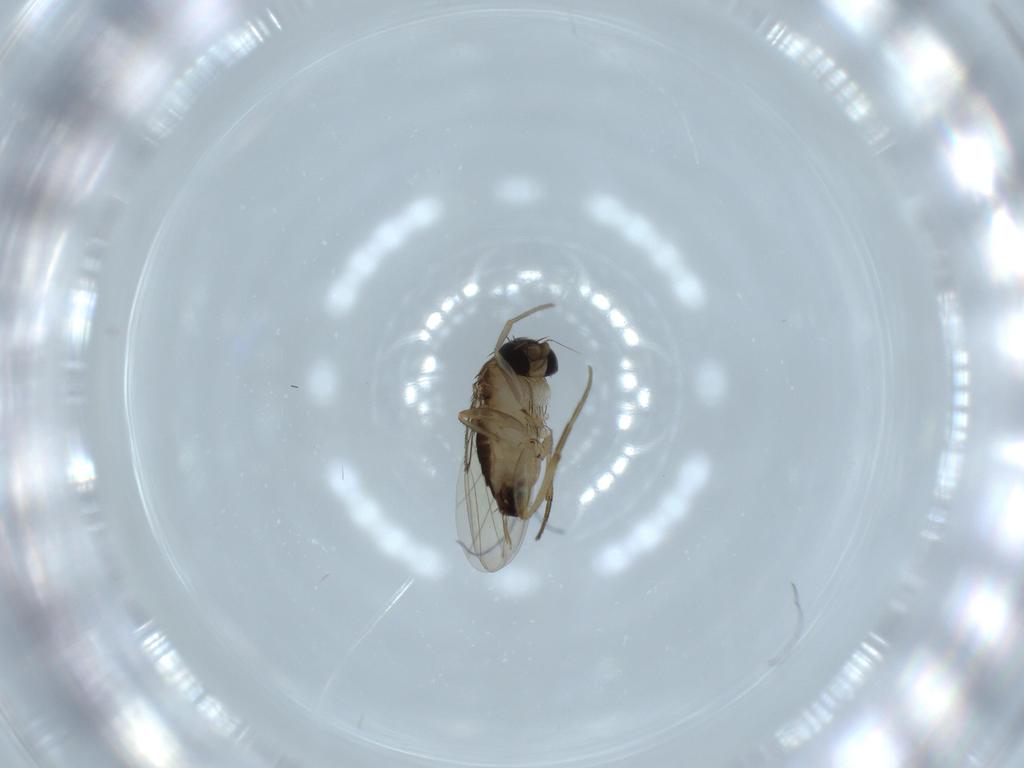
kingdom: Animalia
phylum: Arthropoda
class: Insecta
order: Diptera
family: Phoridae
